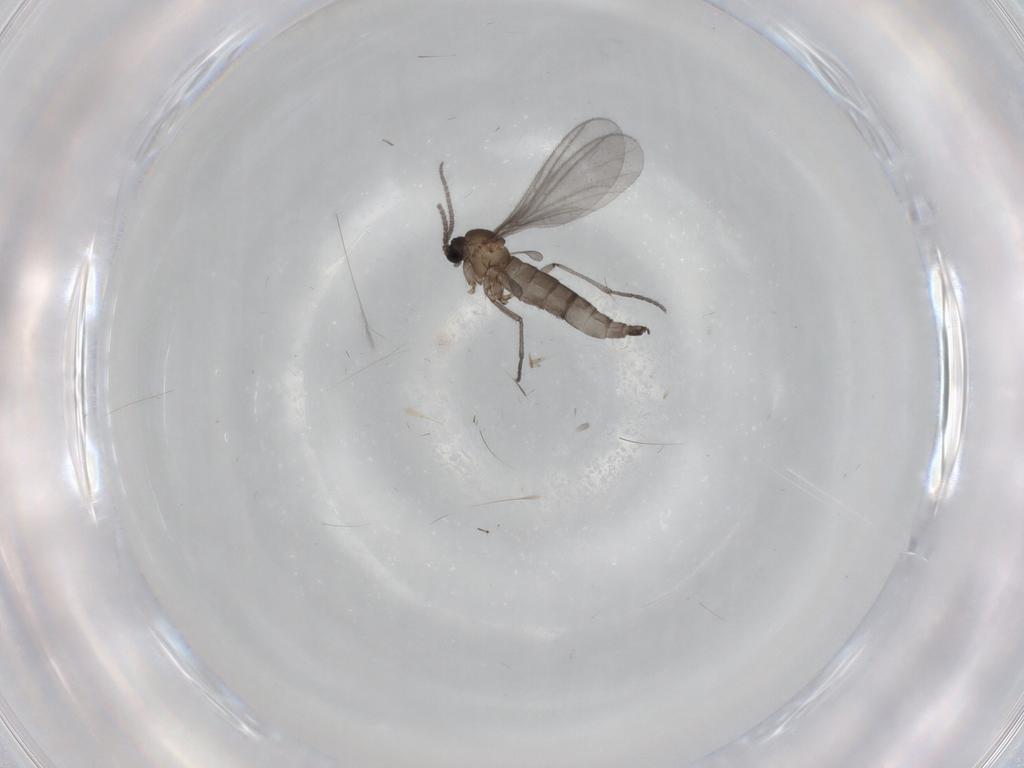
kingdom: Animalia
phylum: Arthropoda
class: Insecta
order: Diptera
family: Sciaridae
